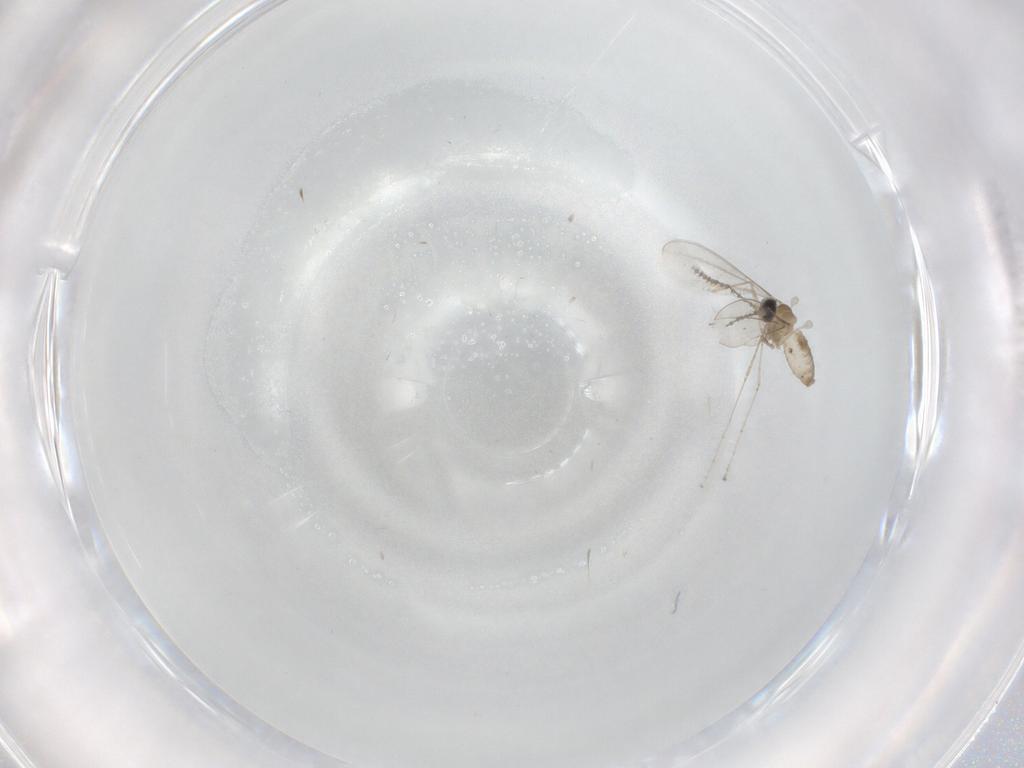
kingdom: Animalia
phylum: Arthropoda
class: Insecta
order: Diptera
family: Cecidomyiidae
